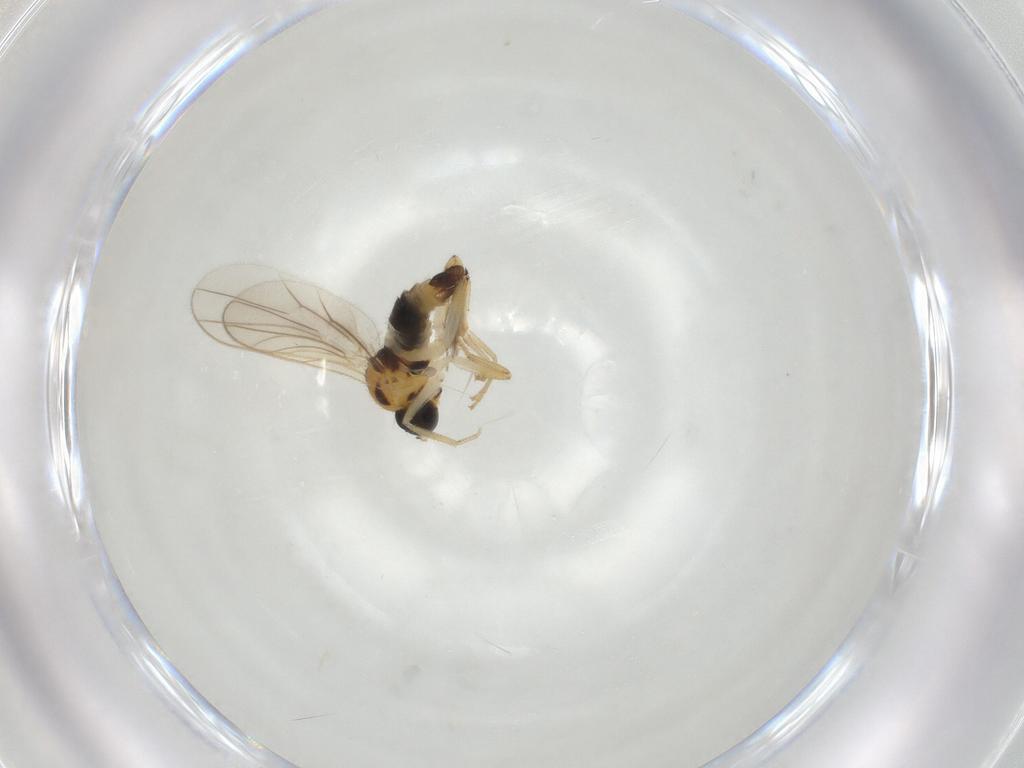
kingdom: Animalia
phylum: Arthropoda
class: Insecta
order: Diptera
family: Hybotidae
